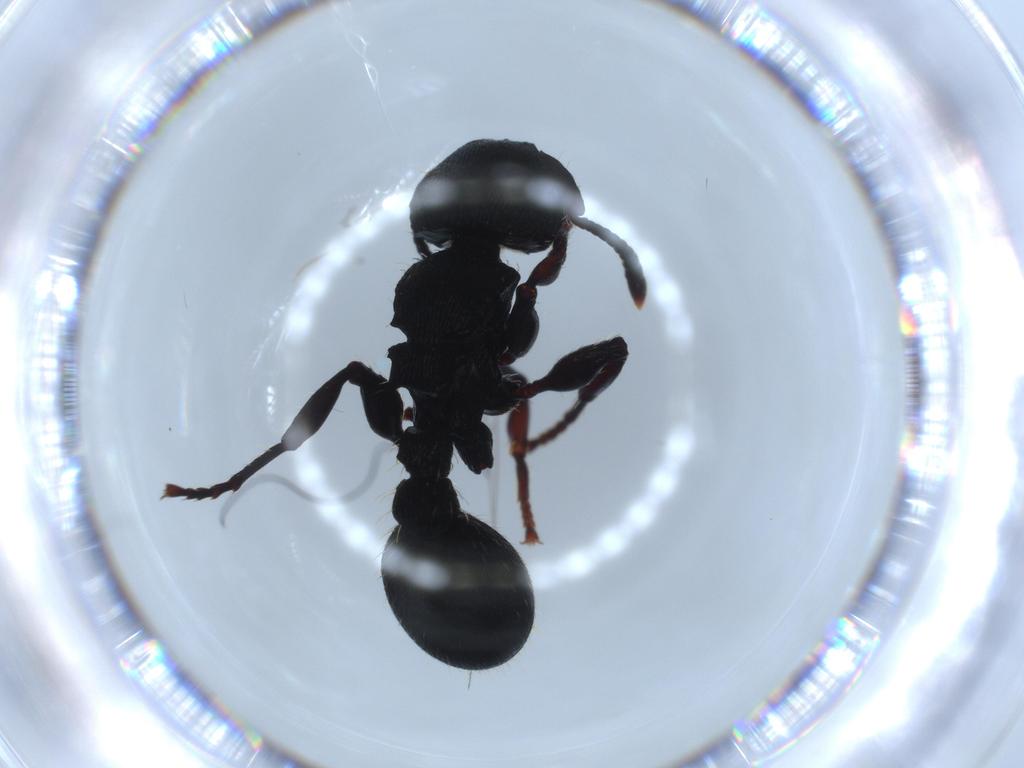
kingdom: Animalia
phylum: Arthropoda
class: Insecta
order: Hymenoptera
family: Formicidae
